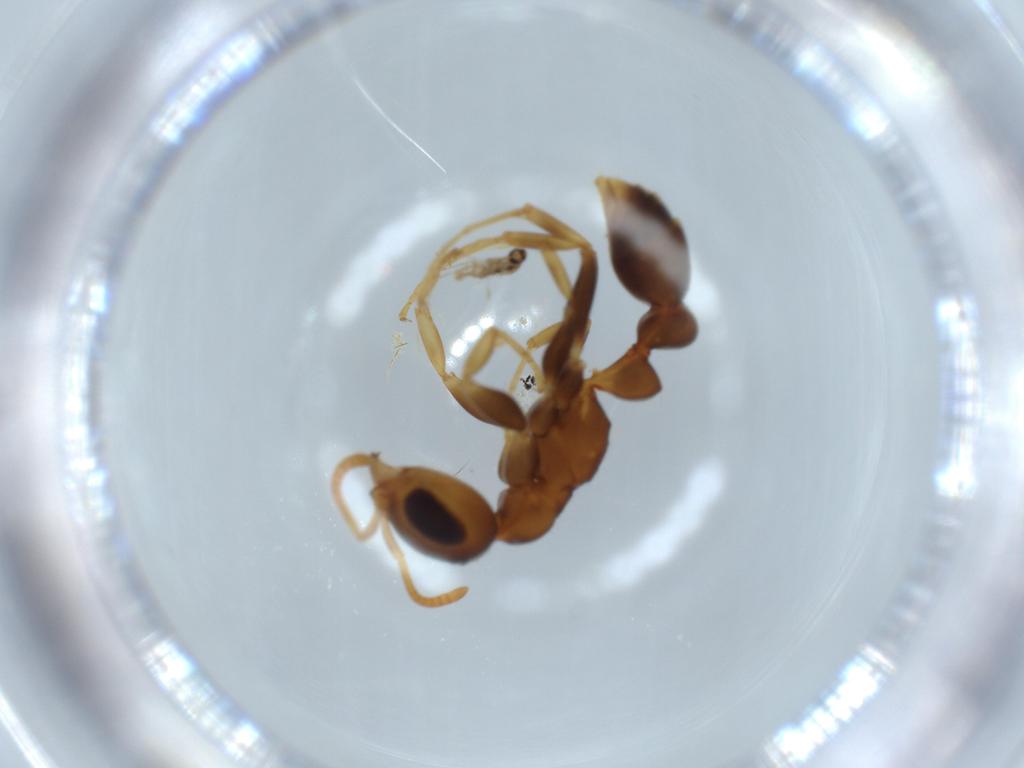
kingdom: Animalia
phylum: Arthropoda
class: Insecta
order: Hymenoptera
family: Formicidae
